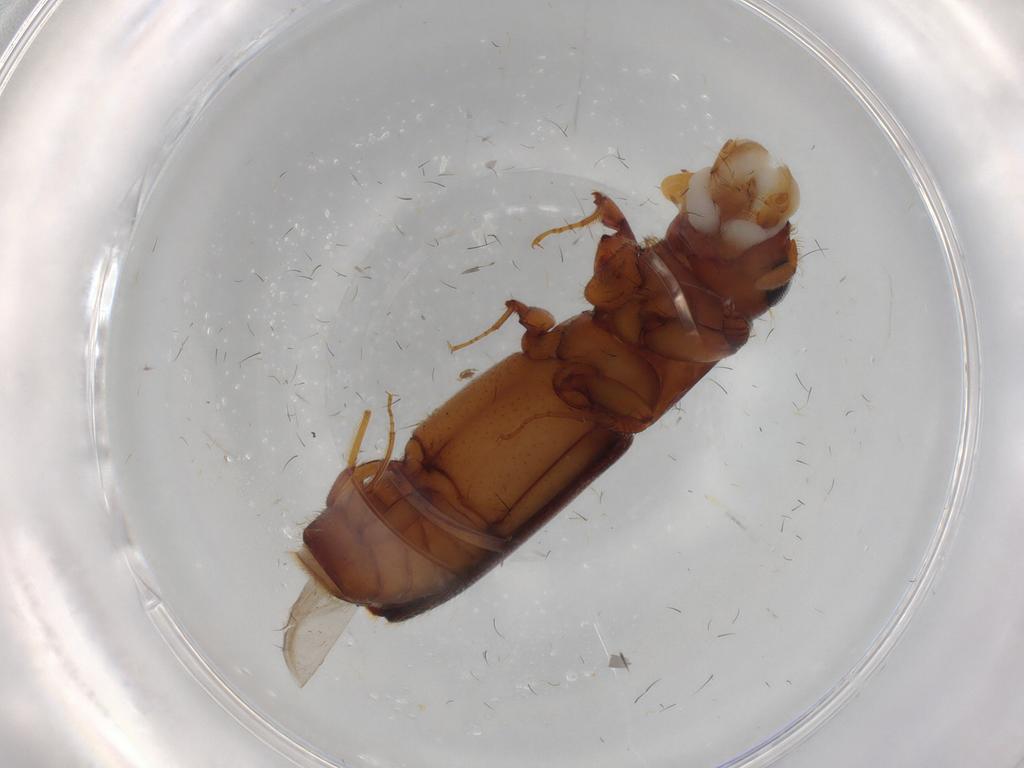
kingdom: Animalia
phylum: Arthropoda
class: Insecta
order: Coleoptera
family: Curculionidae
